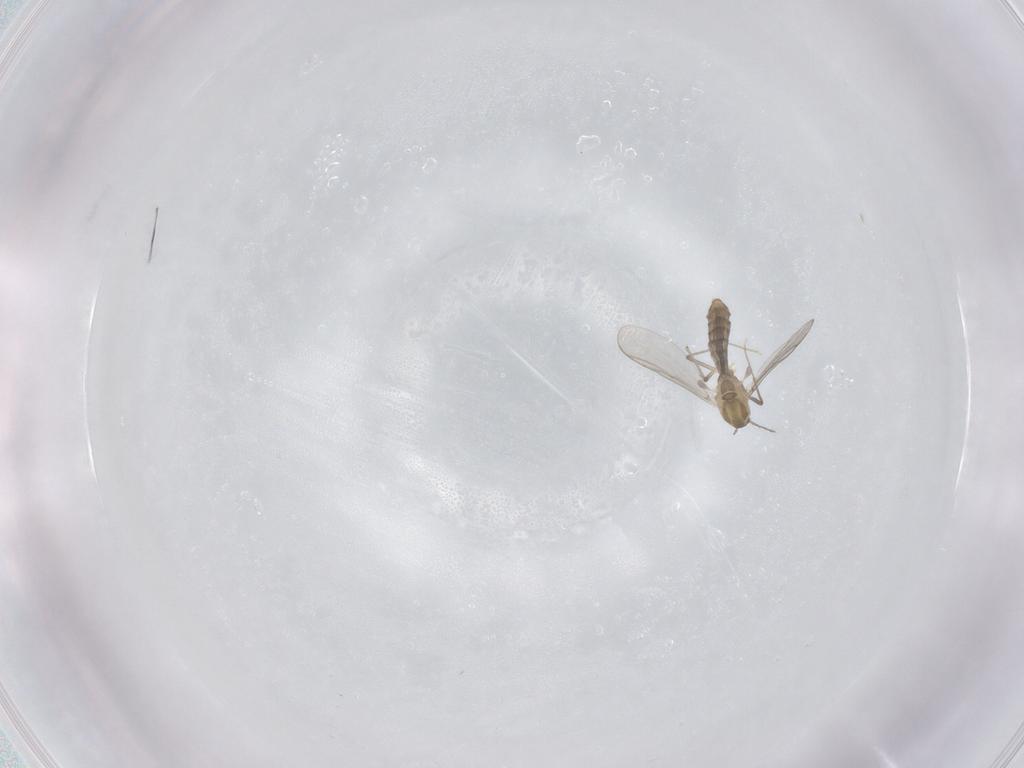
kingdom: Animalia
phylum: Arthropoda
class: Insecta
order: Diptera
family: Chironomidae
